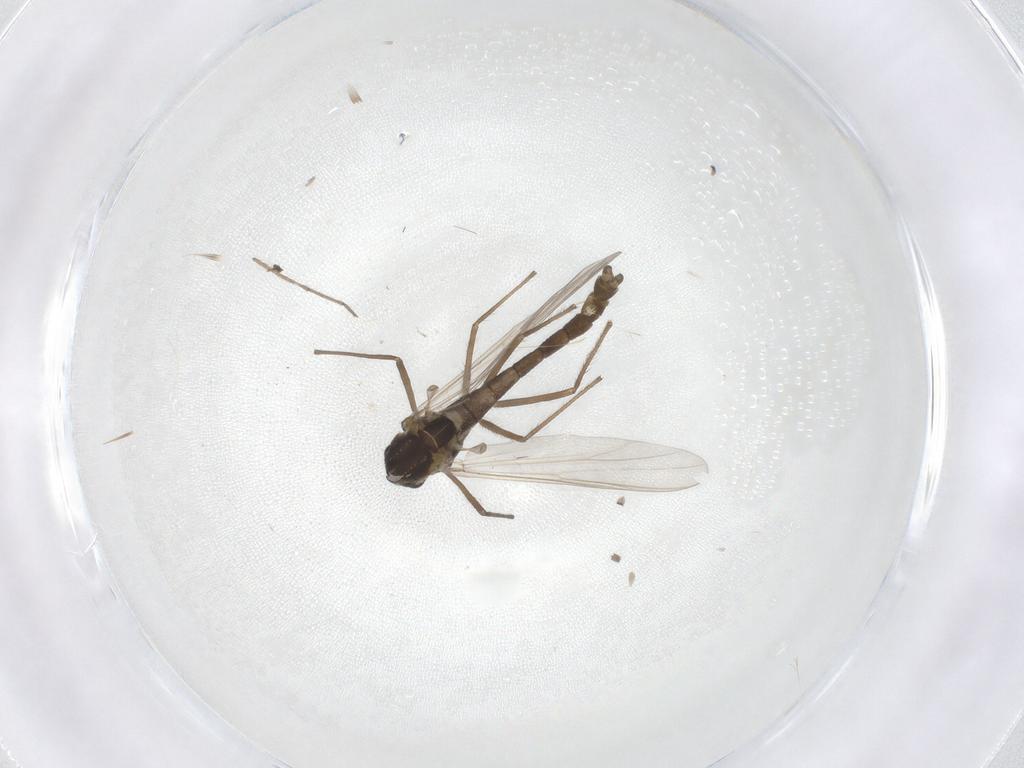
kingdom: Animalia
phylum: Arthropoda
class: Insecta
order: Diptera
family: Chironomidae
